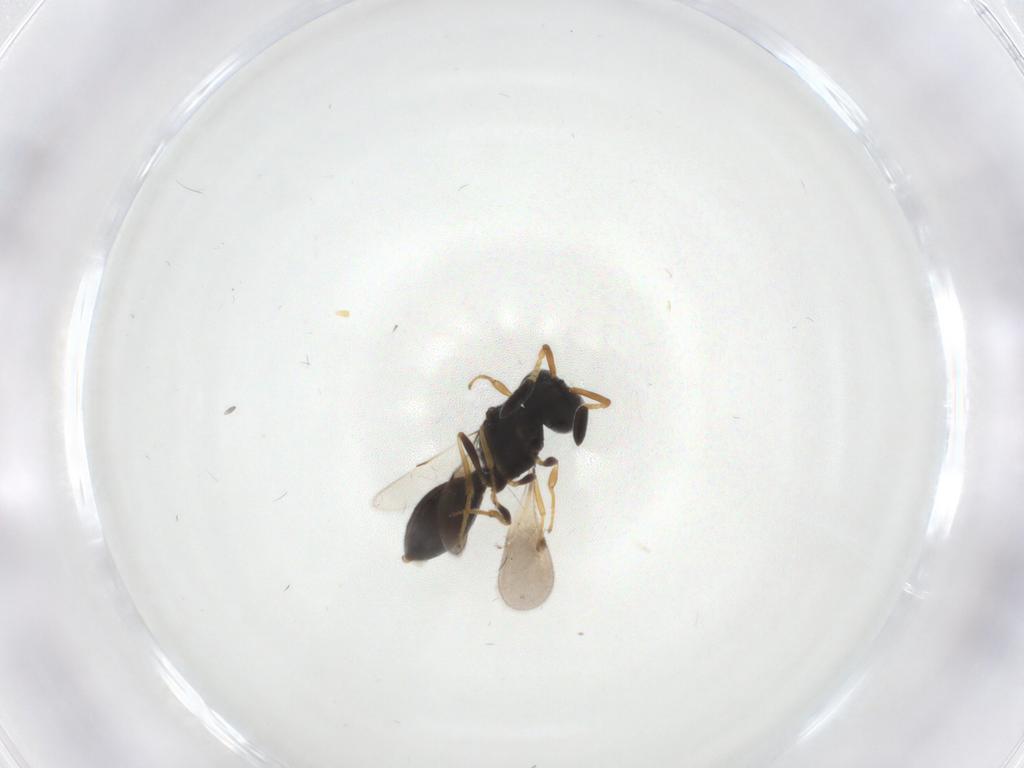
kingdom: Animalia
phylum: Arthropoda
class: Insecta
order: Hymenoptera
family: Scelionidae
